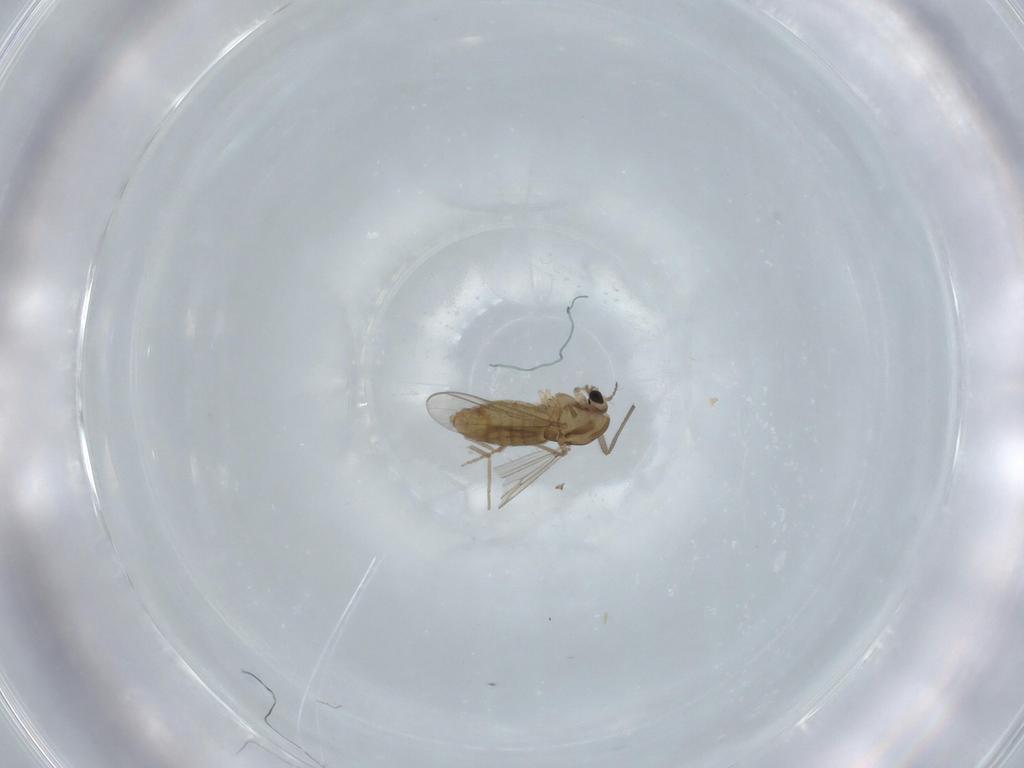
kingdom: Animalia
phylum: Arthropoda
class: Insecta
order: Diptera
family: Chironomidae
